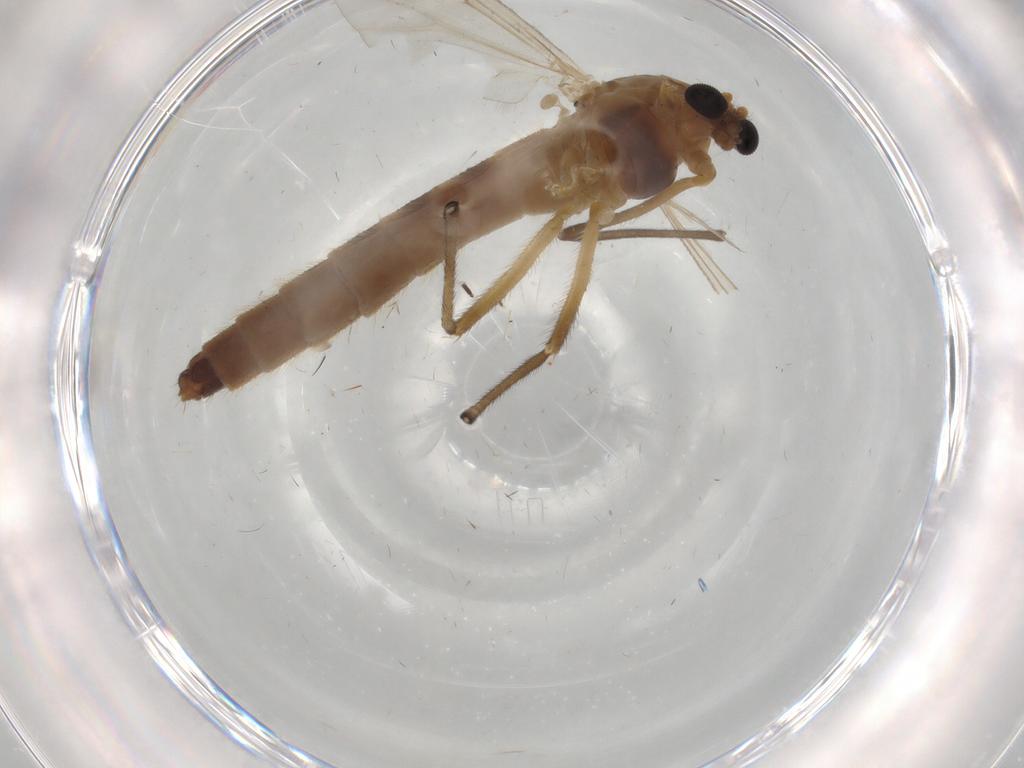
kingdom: Animalia
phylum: Arthropoda
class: Insecta
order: Diptera
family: Chironomidae
